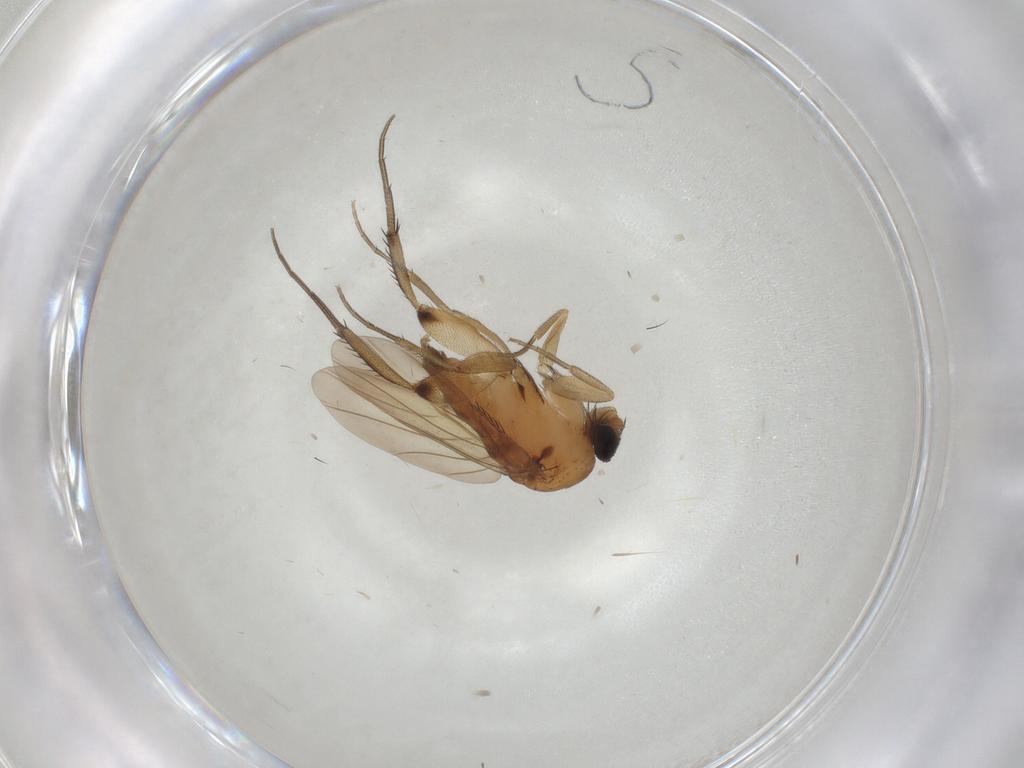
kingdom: Animalia
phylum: Arthropoda
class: Insecta
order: Diptera
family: Phoridae
